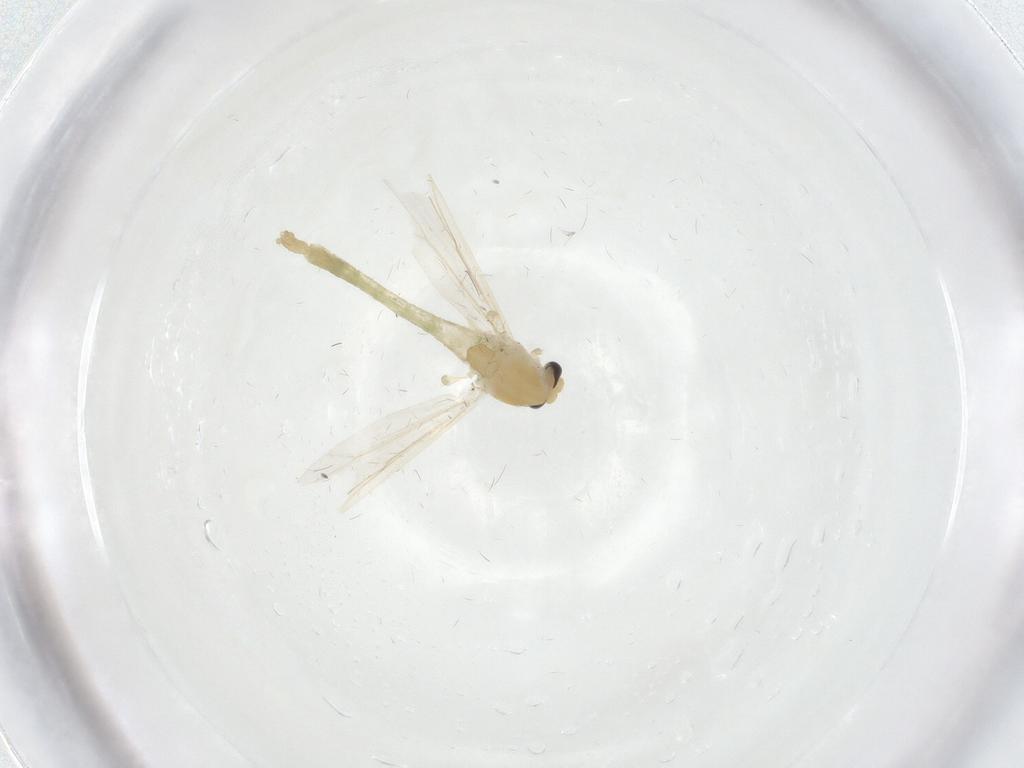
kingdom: Animalia
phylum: Arthropoda
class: Insecta
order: Diptera
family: Chironomidae
